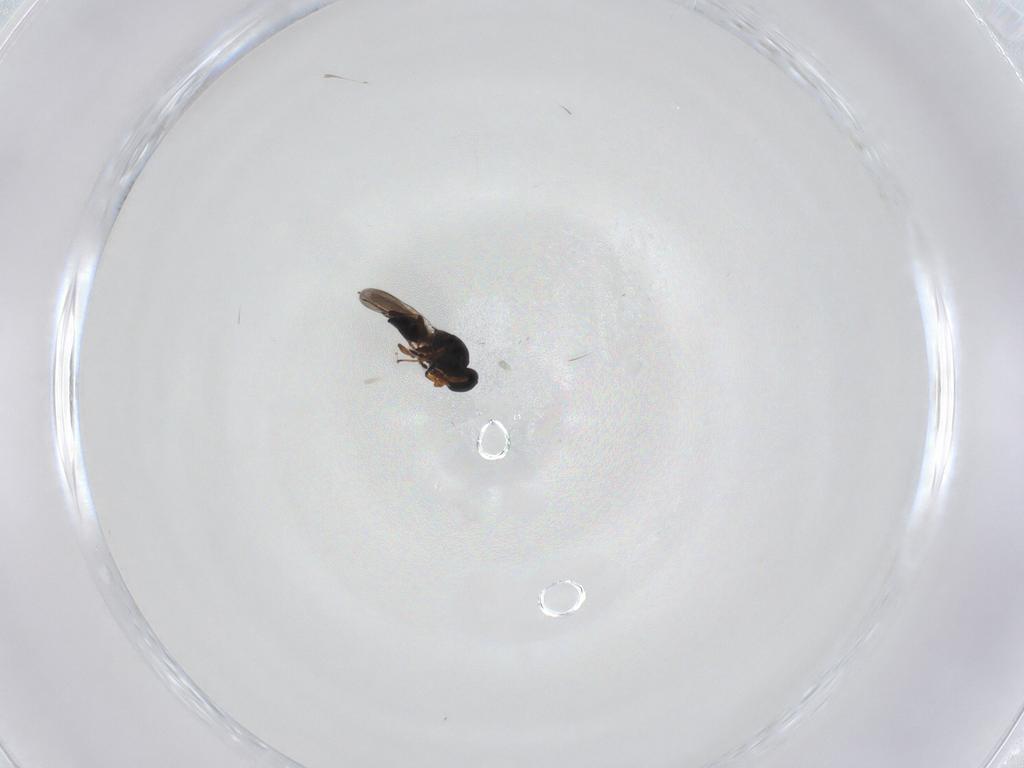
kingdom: Animalia
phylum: Arthropoda
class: Insecta
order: Hymenoptera
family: Platygastridae
